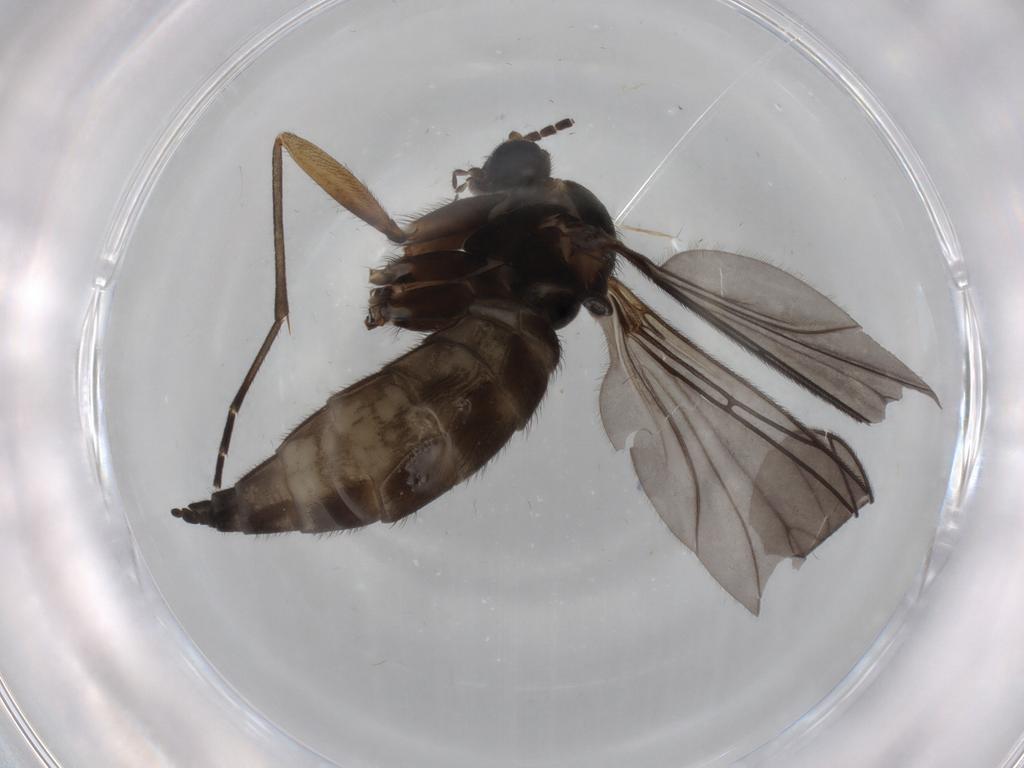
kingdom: Animalia
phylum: Arthropoda
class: Insecta
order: Diptera
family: Sciaridae
